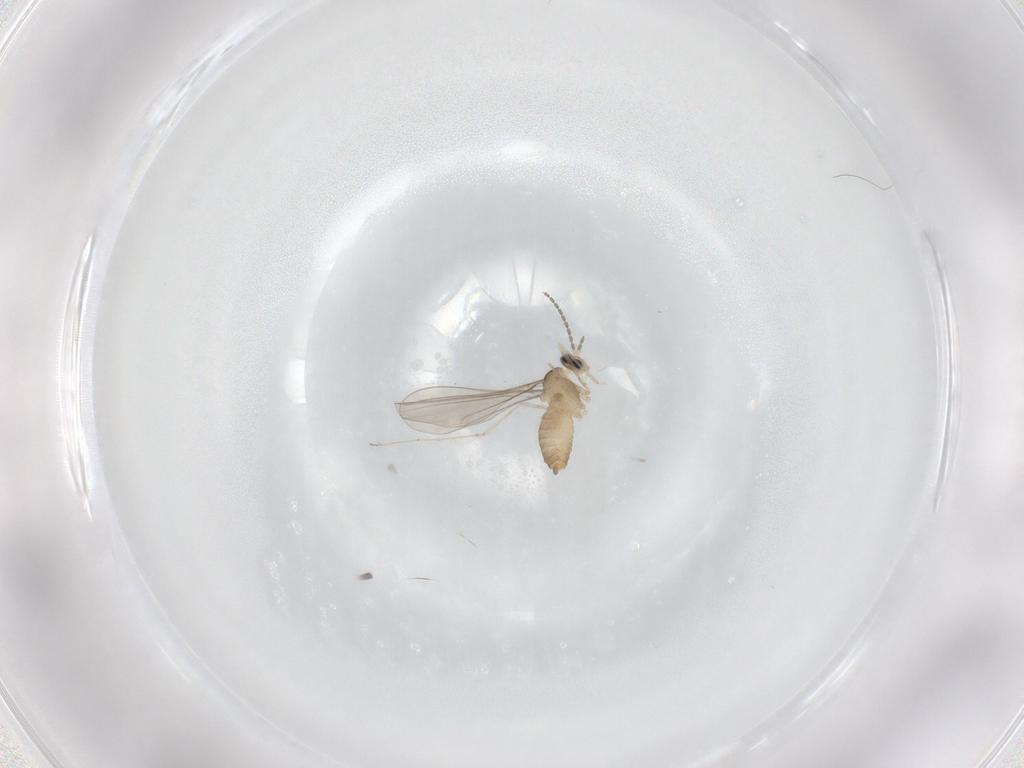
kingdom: Animalia
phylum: Arthropoda
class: Insecta
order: Diptera
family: Cecidomyiidae
